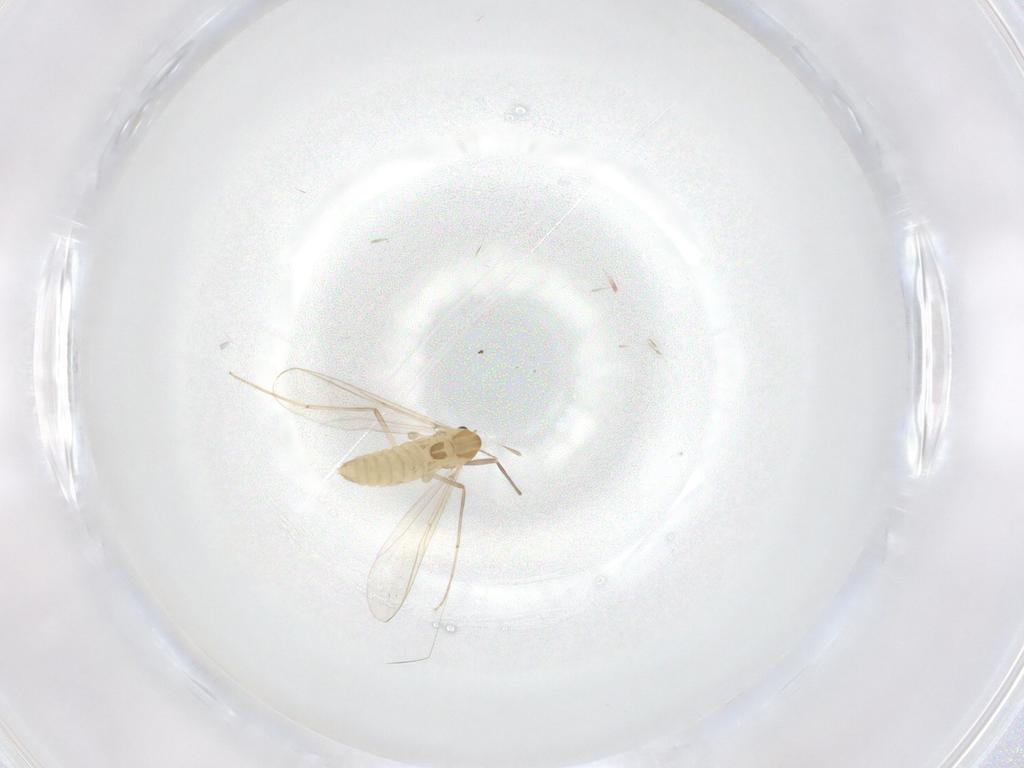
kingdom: Animalia
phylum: Arthropoda
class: Insecta
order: Diptera
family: Chironomidae
